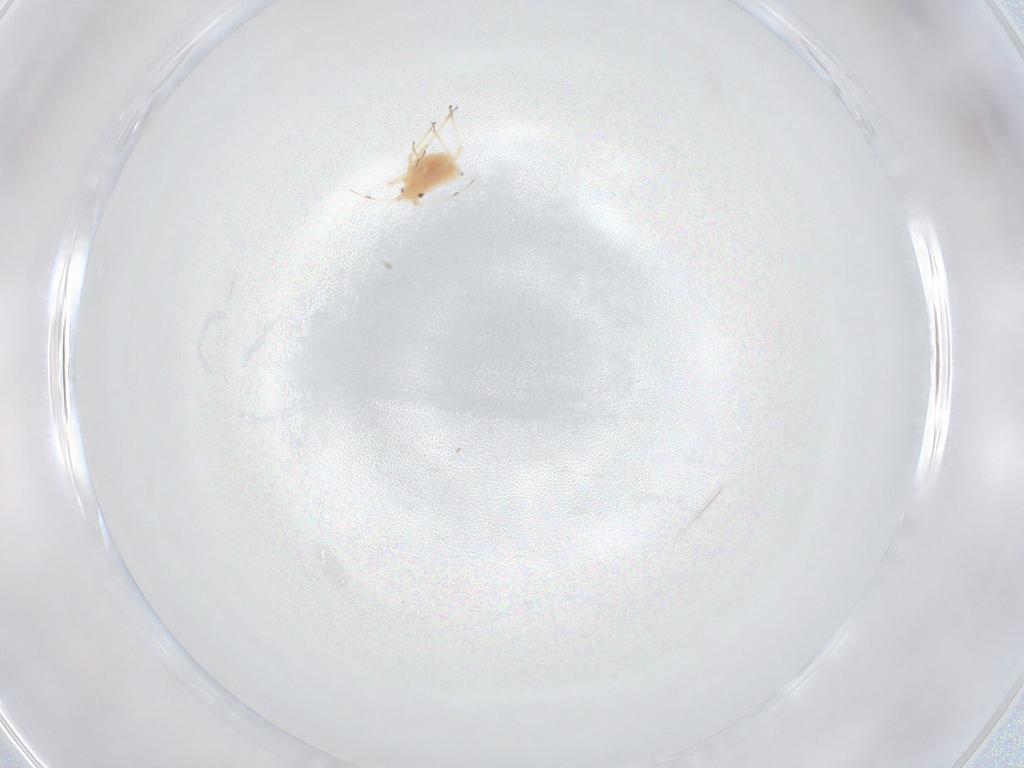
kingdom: Animalia
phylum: Arthropoda
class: Insecta
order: Hemiptera
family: Aphididae
